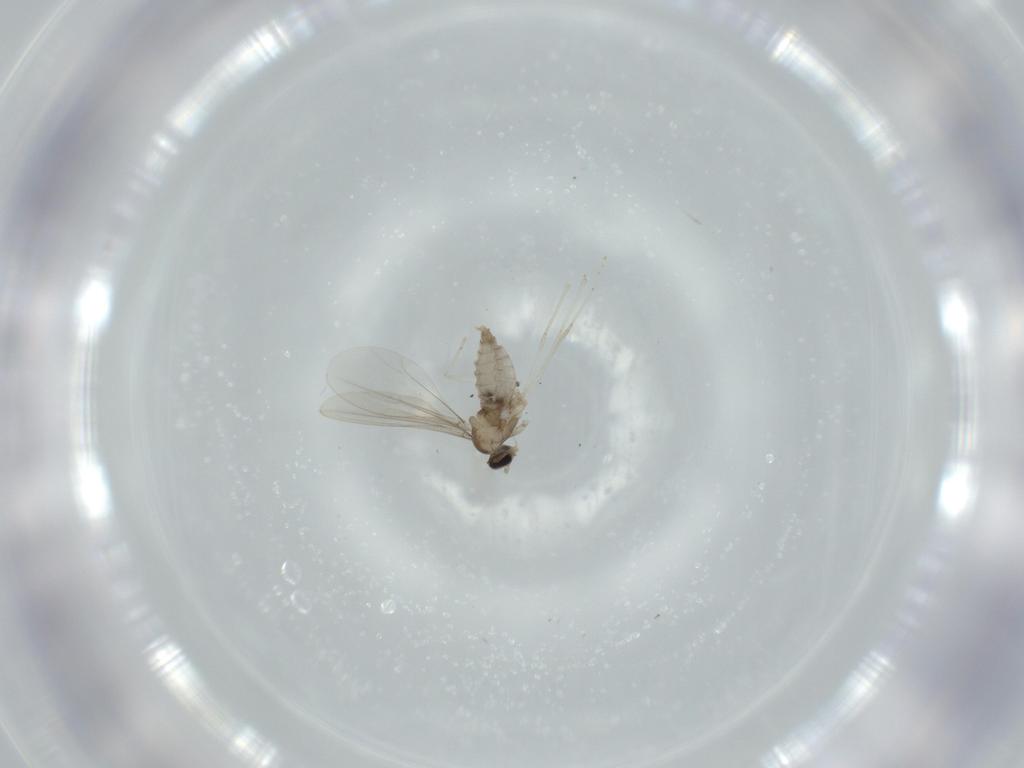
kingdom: Animalia
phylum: Arthropoda
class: Insecta
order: Diptera
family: Cecidomyiidae
